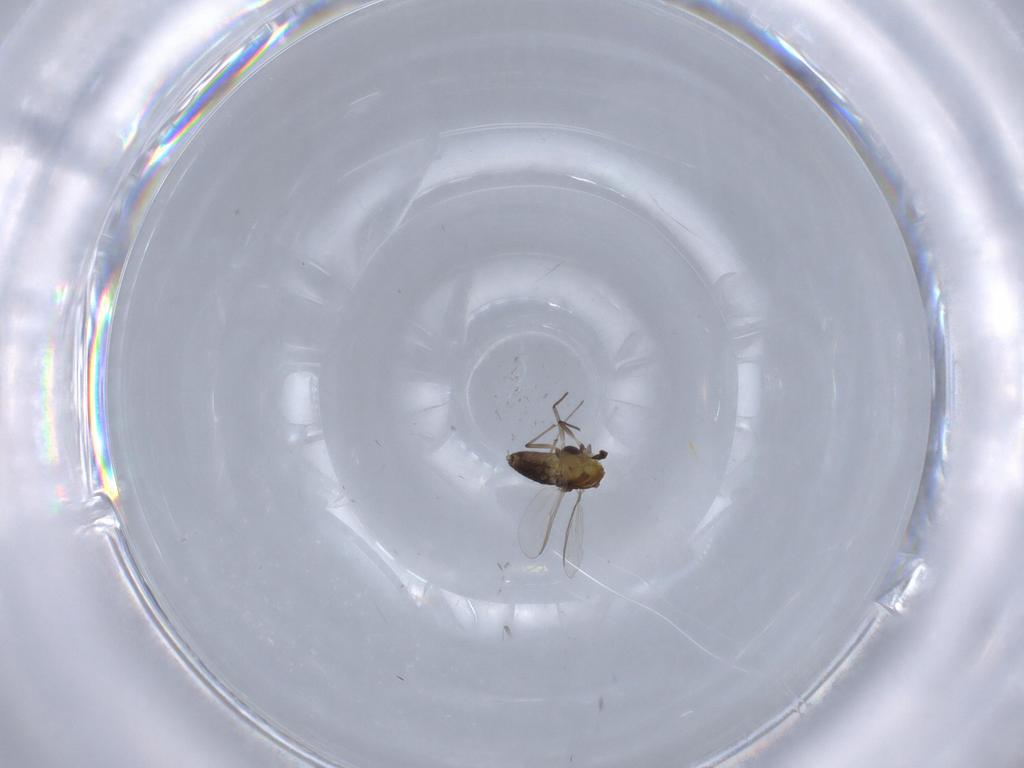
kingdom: Animalia
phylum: Arthropoda
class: Insecta
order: Diptera
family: Chironomidae
